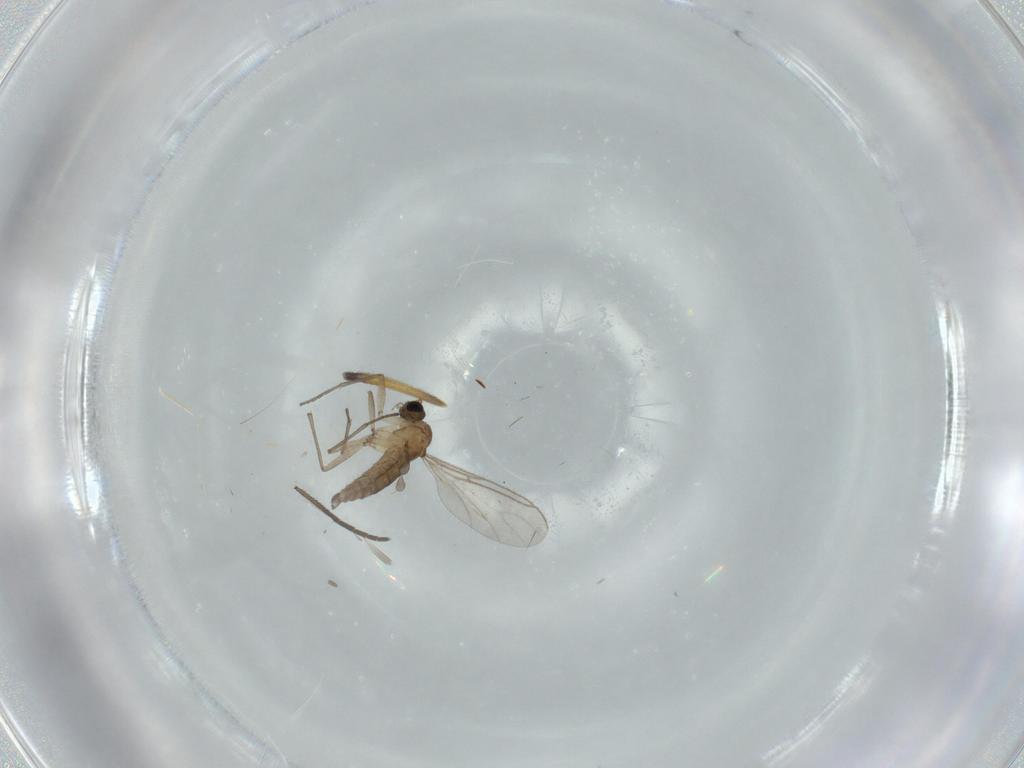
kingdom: Animalia
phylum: Arthropoda
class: Insecta
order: Diptera
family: Sciaridae
